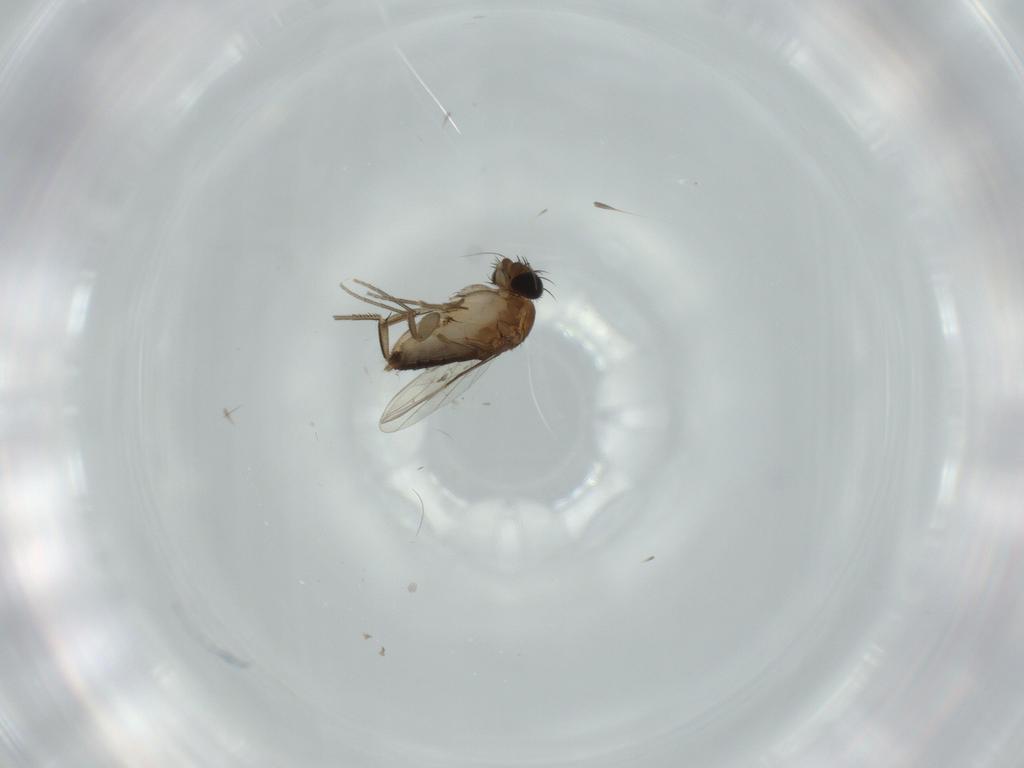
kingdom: Animalia
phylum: Arthropoda
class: Insecta
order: Diptera
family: Phoridae
